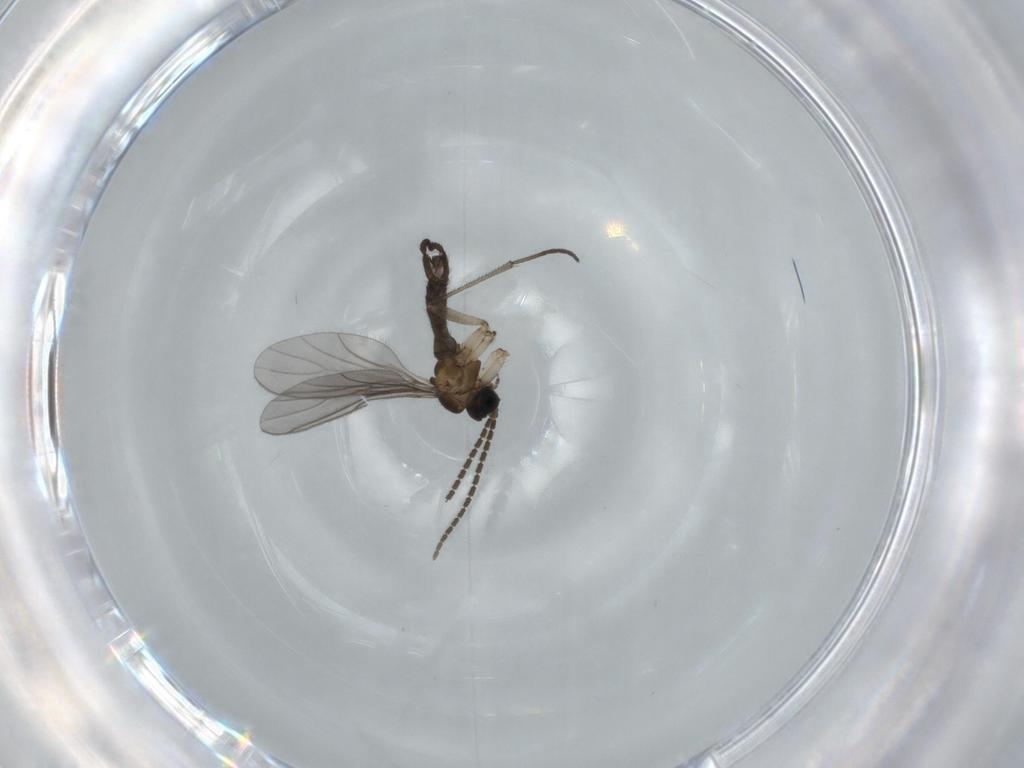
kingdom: Animalia
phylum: Arthropoda
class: Insecta
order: Diptera
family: Sciaridae
